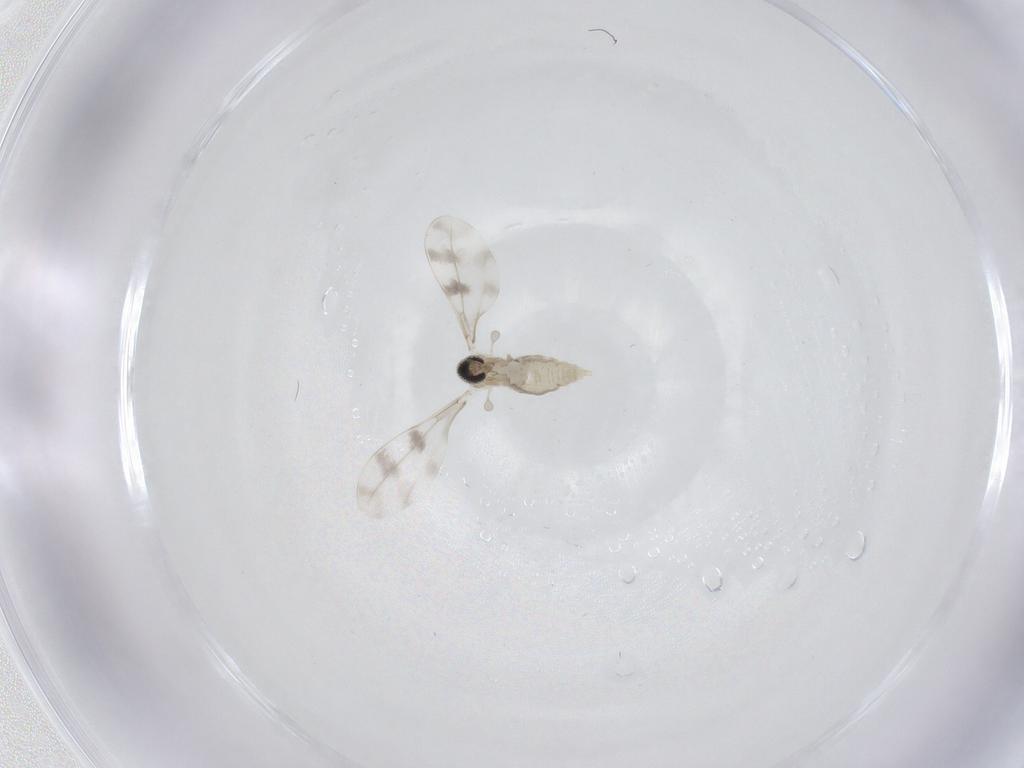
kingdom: Animalia
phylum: Arthropoda
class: Insecta
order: Diptera
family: Cecidomyiidae
